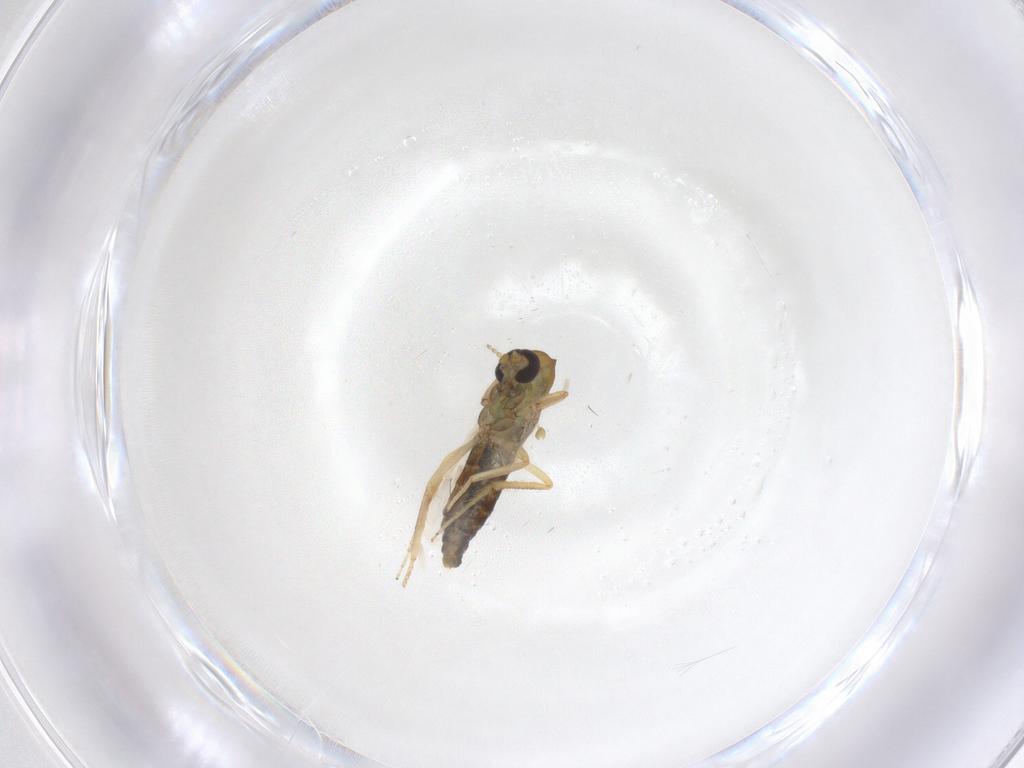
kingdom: Animalia
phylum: Arthropoda
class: Insecta
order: Diptera
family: Ceratopogonidae
